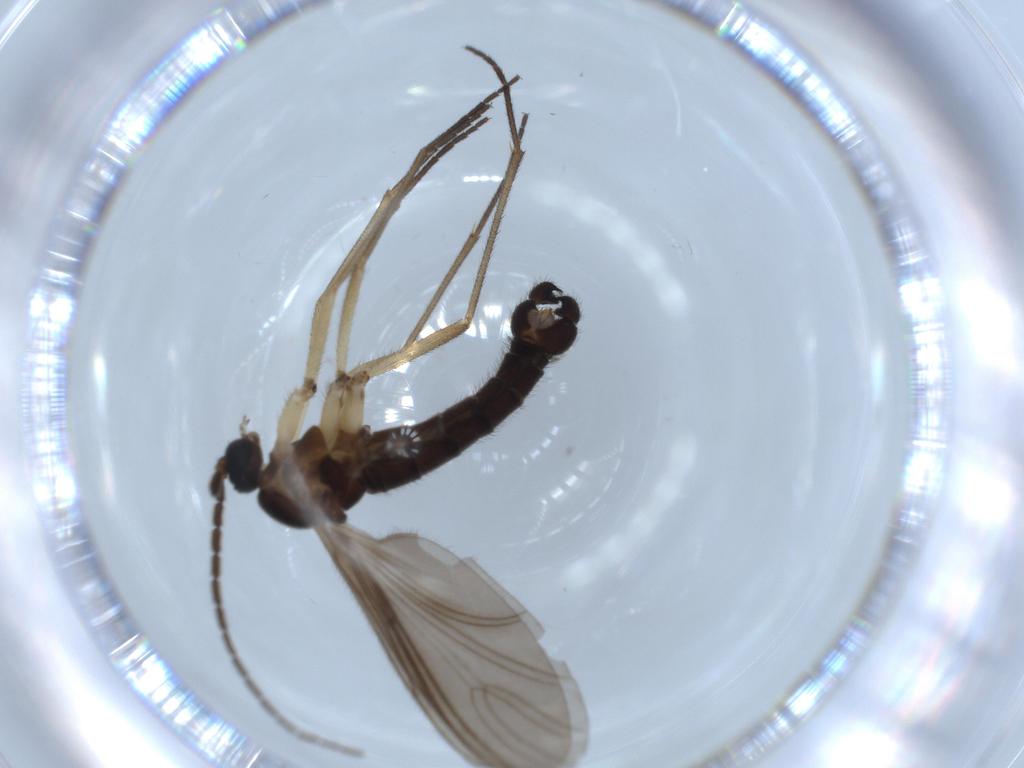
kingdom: Animalia
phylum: Arthropoda
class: Insecta
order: Diptera
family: Sciaridae
